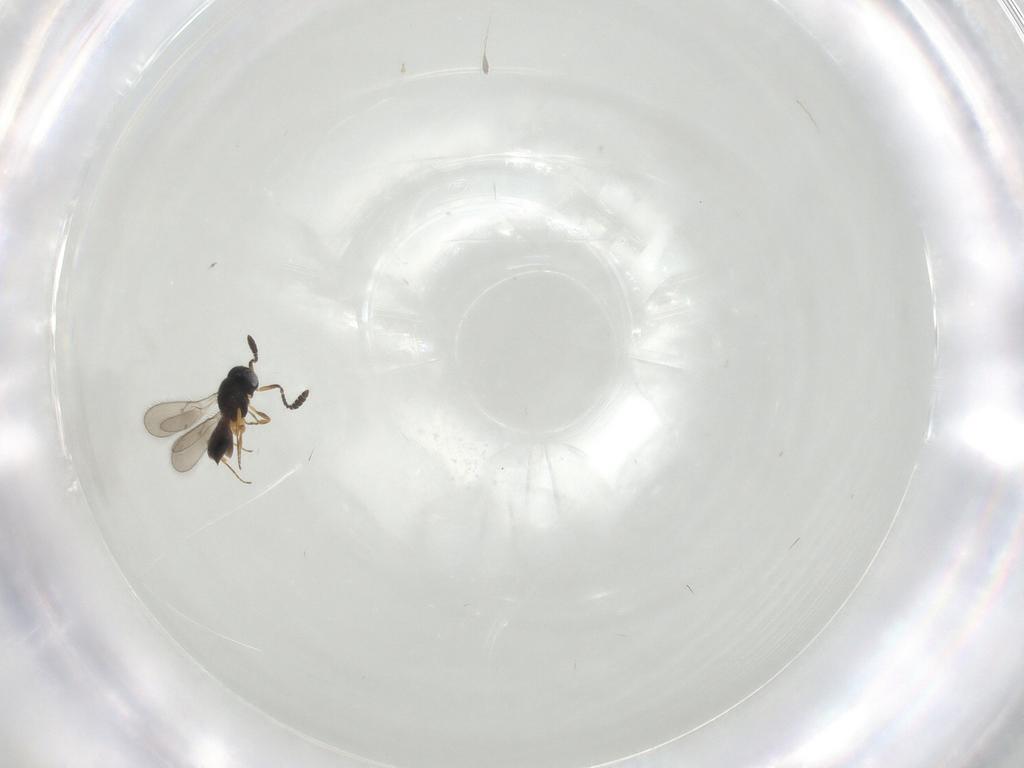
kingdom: Animalia
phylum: Arthropoda
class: Insecta
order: Hymenoptera
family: Scelionidae
